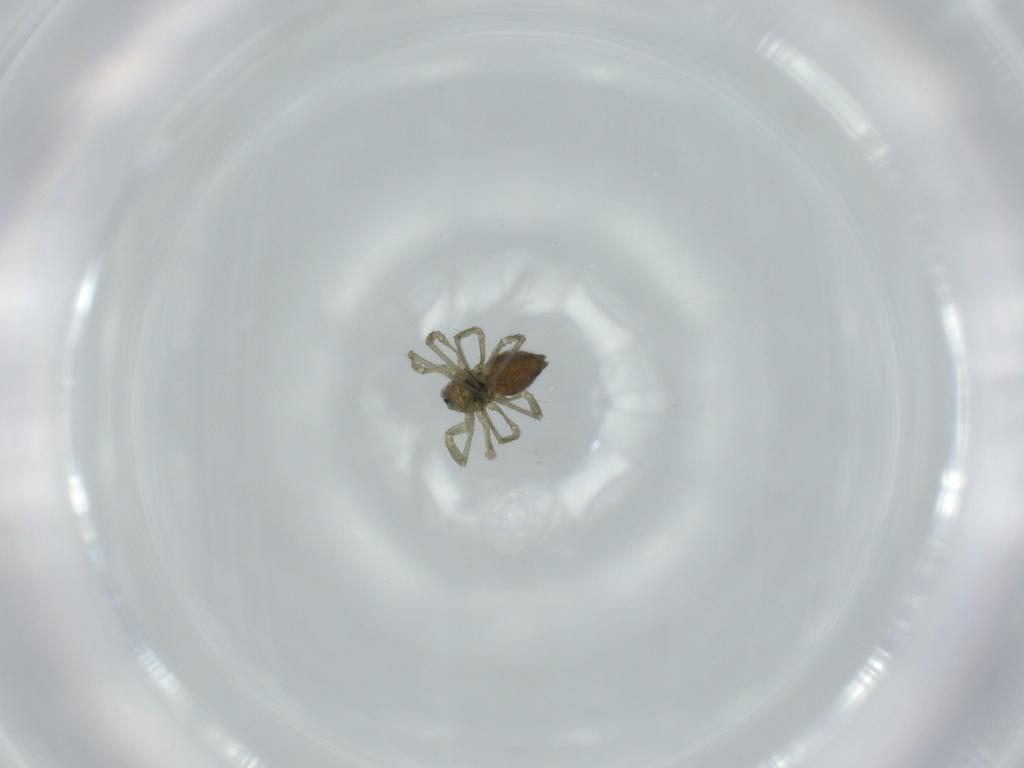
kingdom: Animalia
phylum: Arthropoda
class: Arachnida
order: Araneae
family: Linyphiidae
